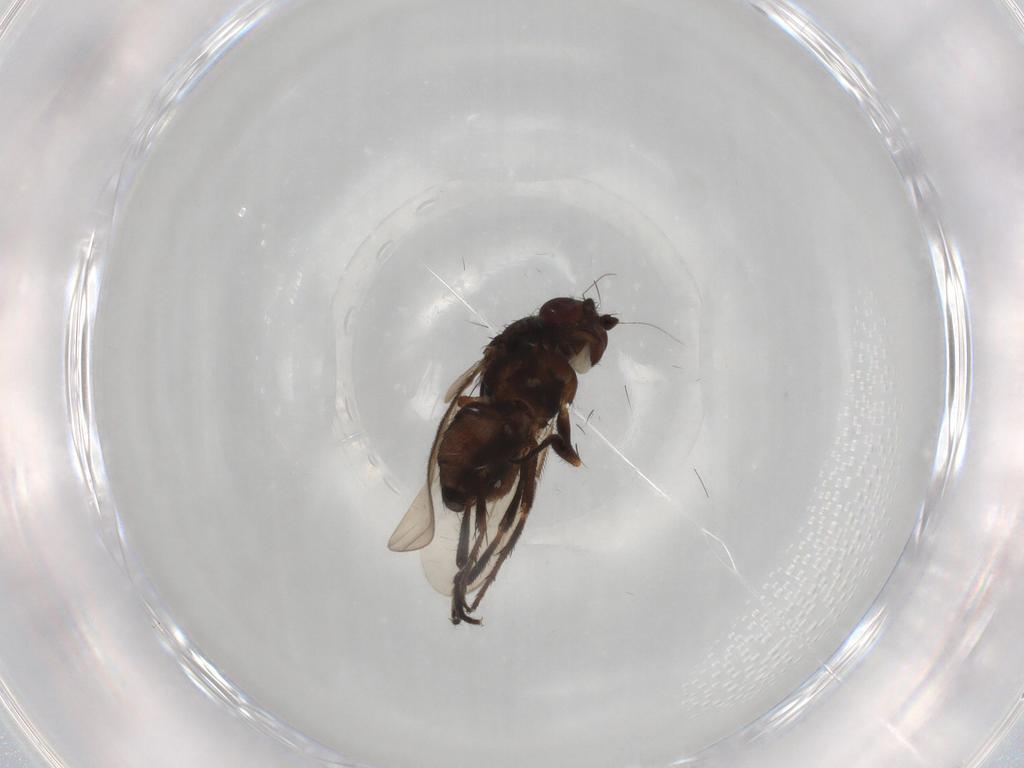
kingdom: Animalia
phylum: Arthropoda
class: Insecta
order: Diptera
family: Sphaeroceridae
